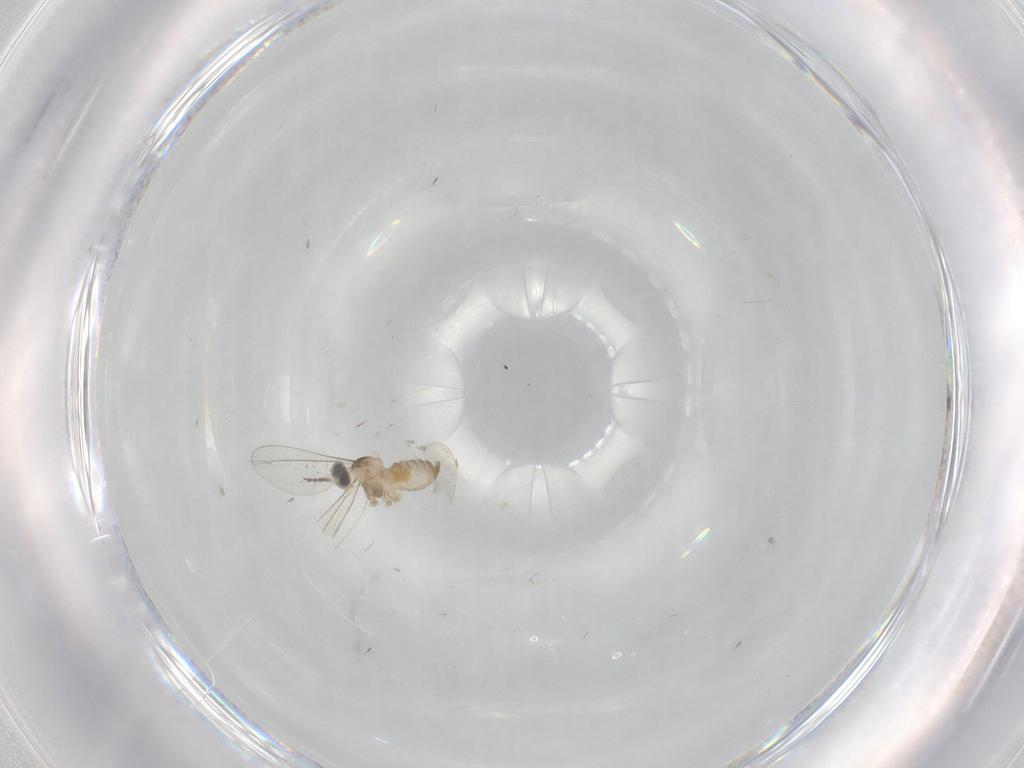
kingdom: Animalia
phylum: Arthropoda
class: Insecta
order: Diptera
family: Cecidomyiidae
